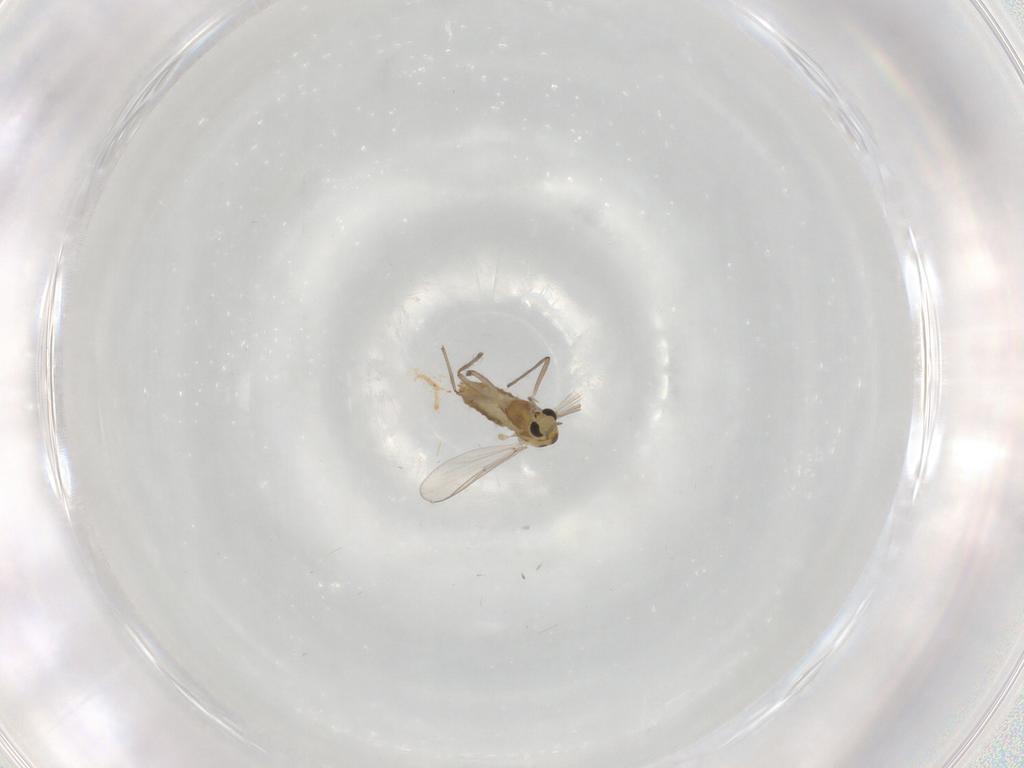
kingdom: Animalia
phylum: Arthropoda
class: Insecta
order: Diptera
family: Chironomidae
